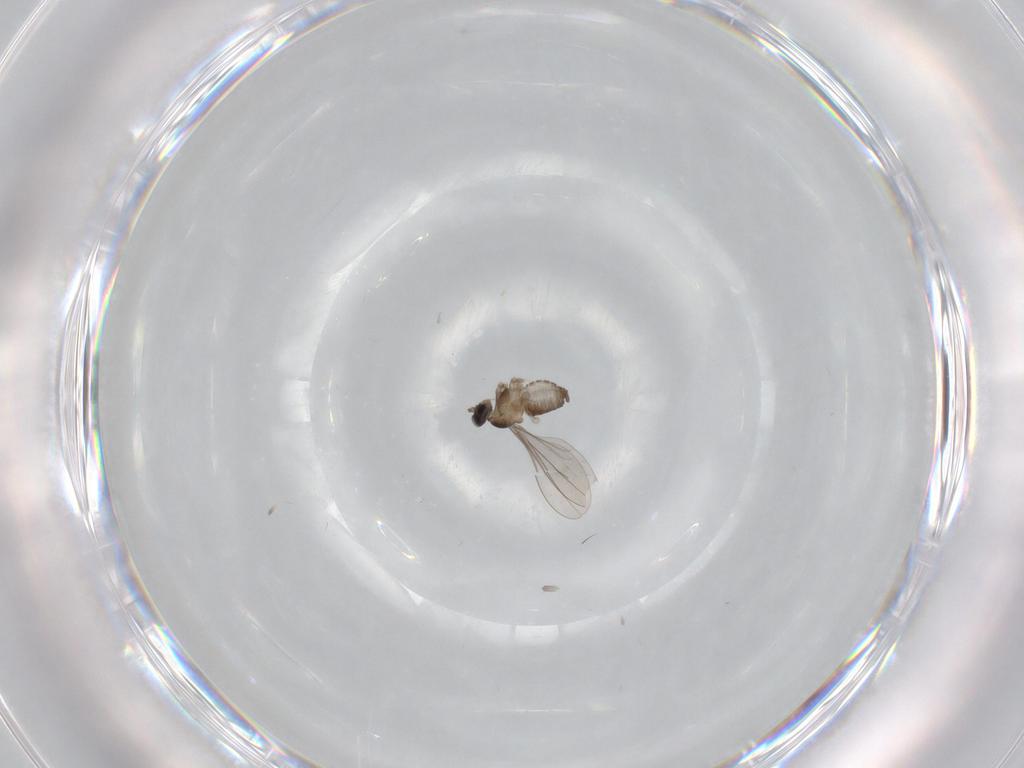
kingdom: Animalia
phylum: Arthropoda
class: Insecta
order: Diptera
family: Cecidomyiidae
